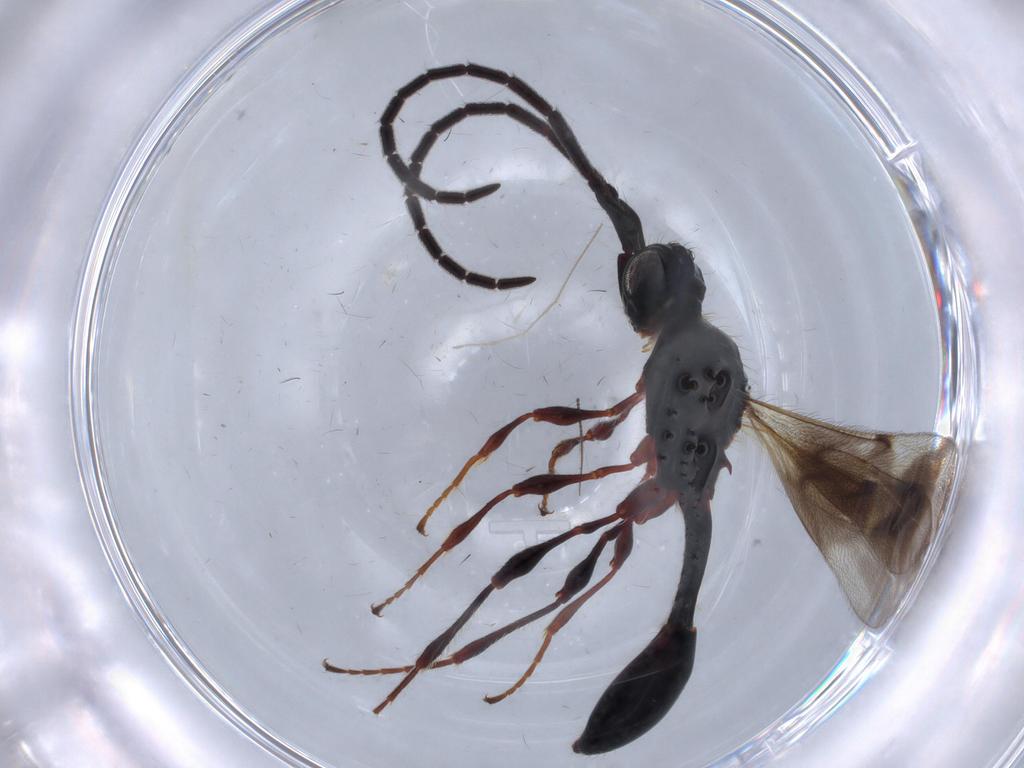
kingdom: Animalia
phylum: Arthropoda
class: Insecta
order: Hymenoptera
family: Diapriidae
